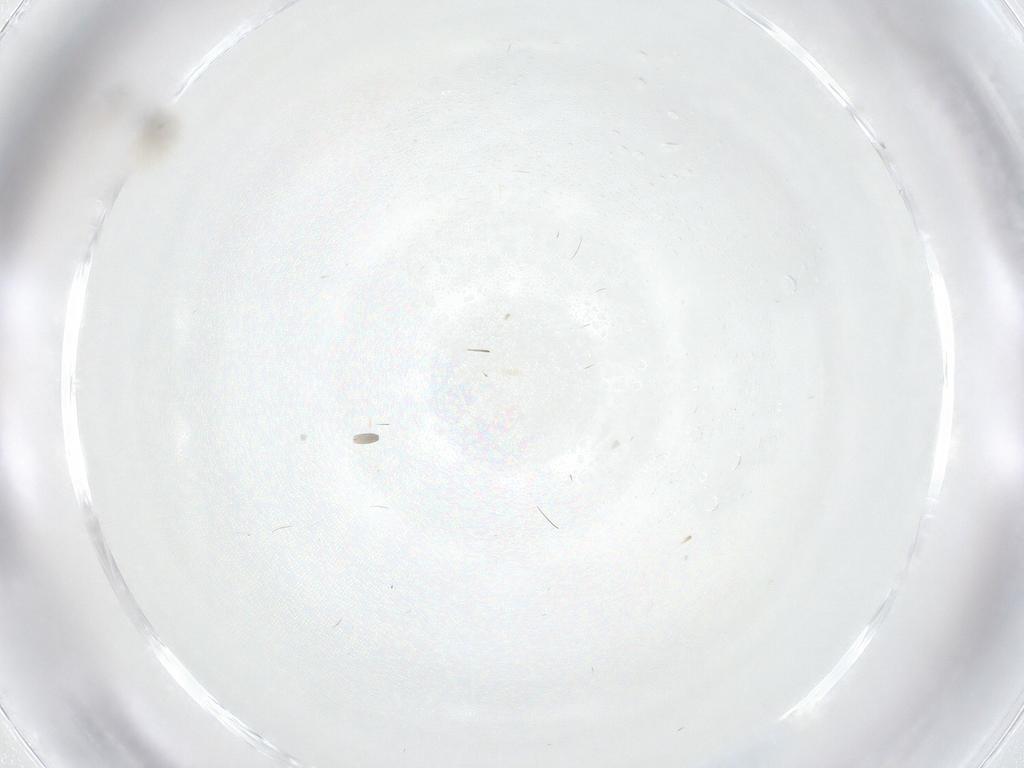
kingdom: Animalia
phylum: Arthropoda
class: Insecta
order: Diptera
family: Cecidomyiidae
